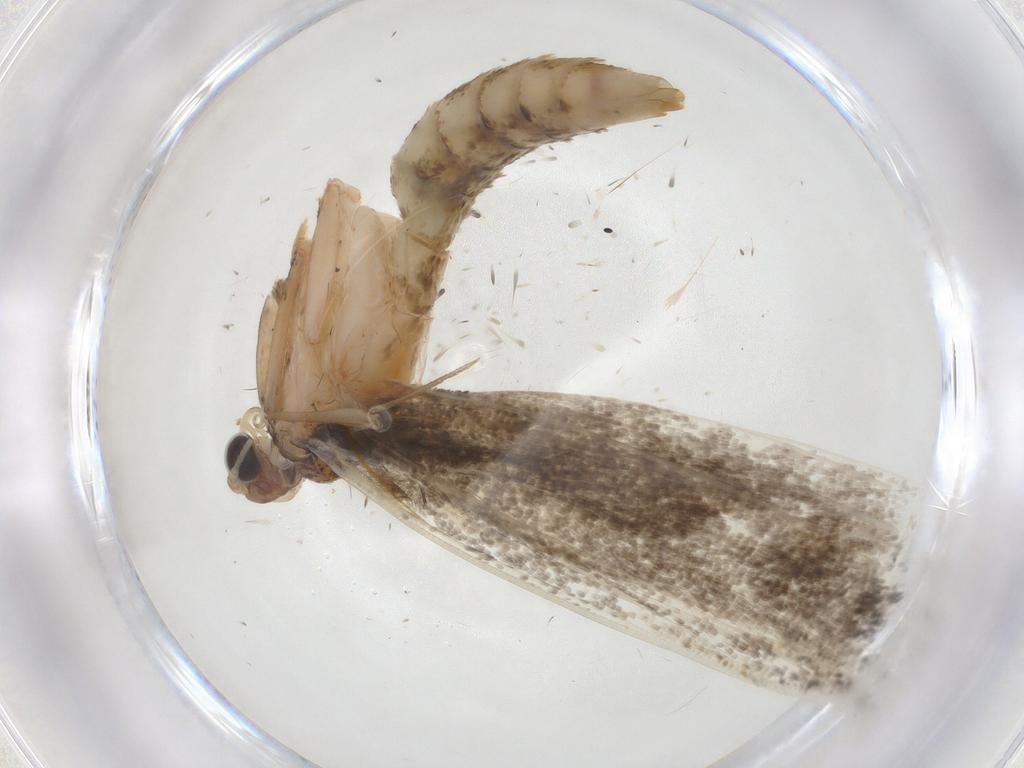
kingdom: Animalia
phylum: Arthropoda
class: Insecta
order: Lepidoptera
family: Tineidae
